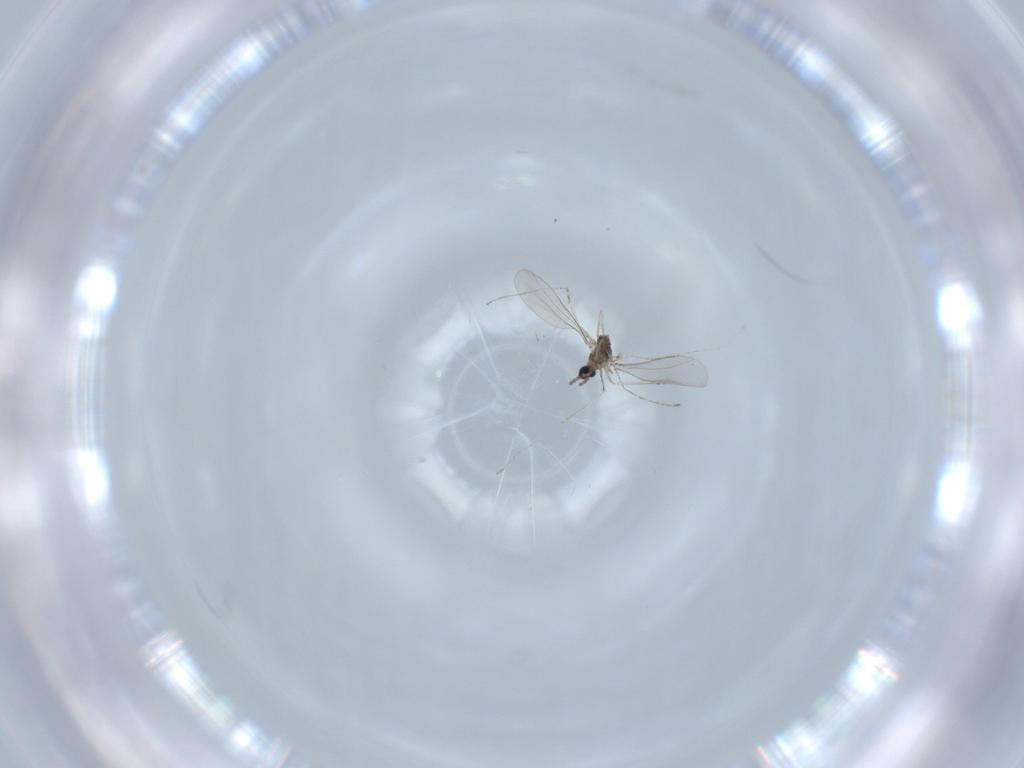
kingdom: Animalia
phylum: Arthropoda
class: Insecta
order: Diptera
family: Cecidomyiidae
